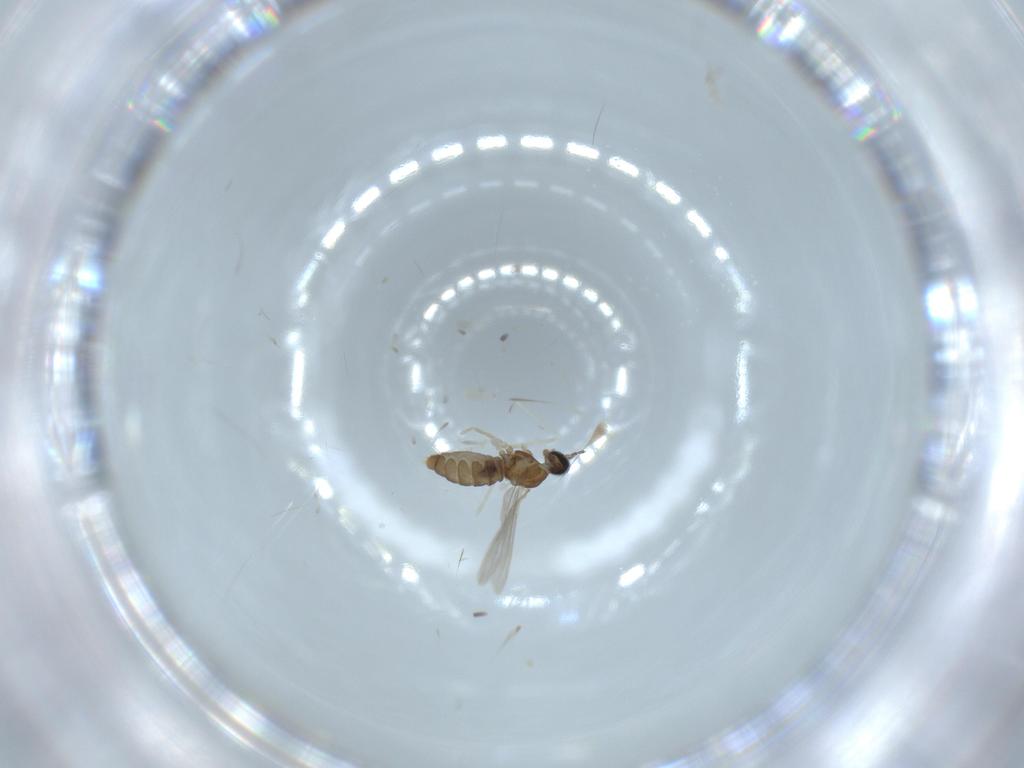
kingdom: Animalia
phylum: Arthropoda
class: Insecta
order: Diptera
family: Cecidomyiidae
